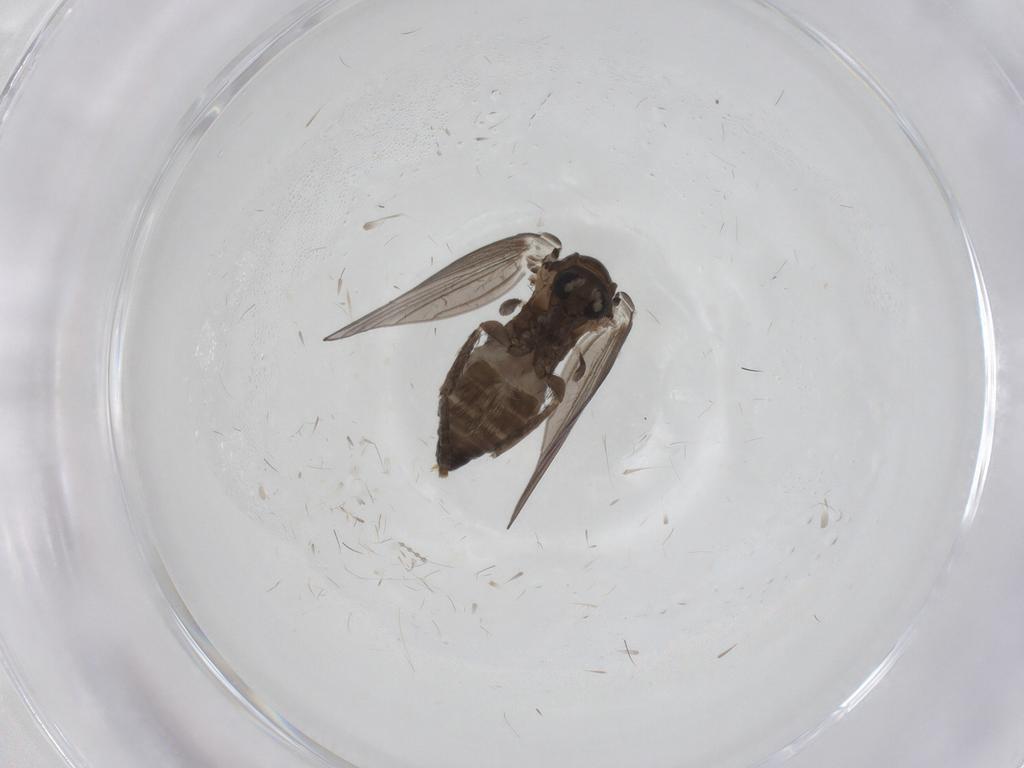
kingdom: Animalia
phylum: Arthropoda
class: Insecta
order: Diptera
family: Psychodidae
